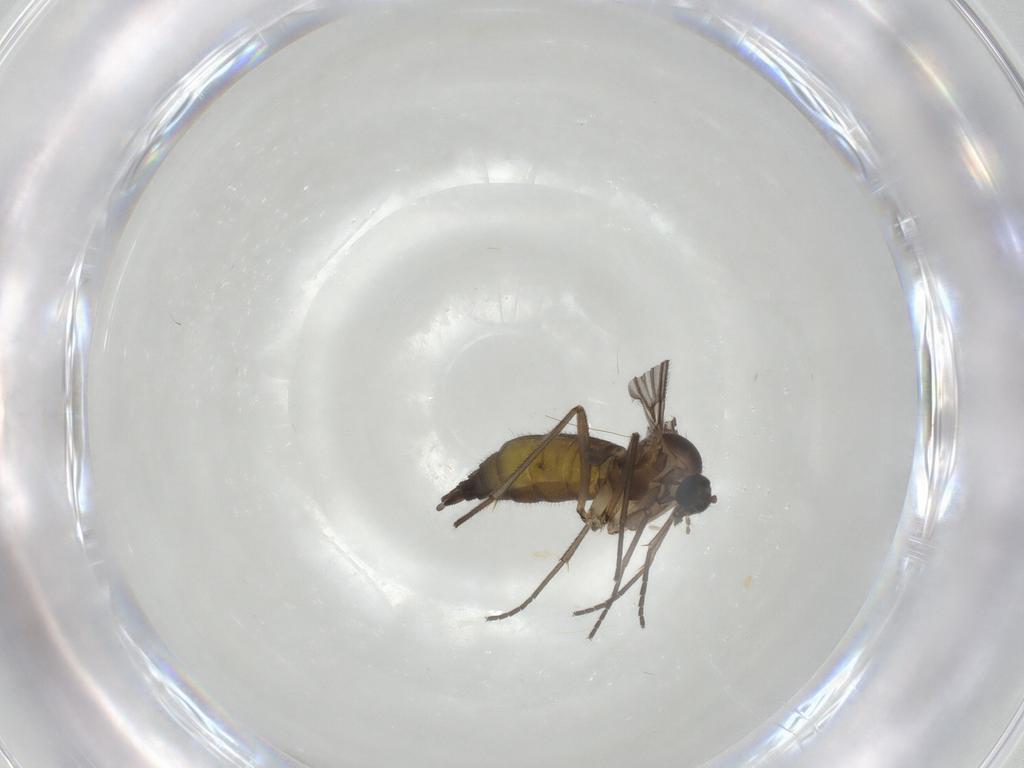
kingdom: Animalia
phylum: Arthropoda
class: Insecta
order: Diptera
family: Sciaridae
